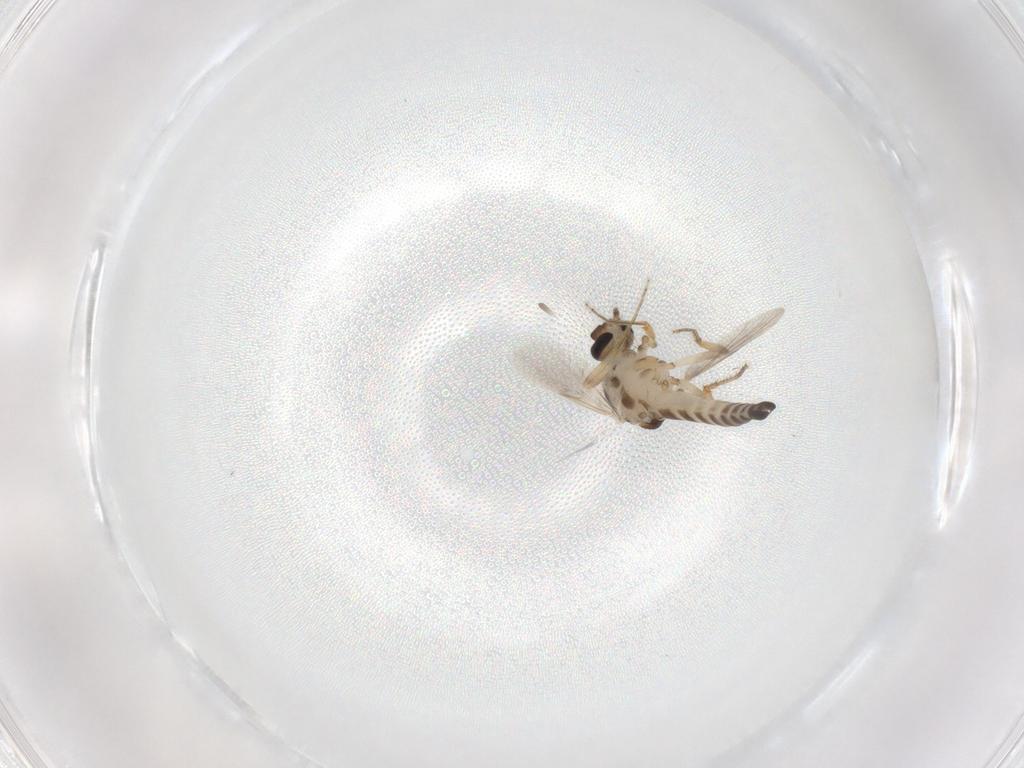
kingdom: Animalia
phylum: Arthropoda
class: Insecta
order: Diptera
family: Ceratopogonidae
